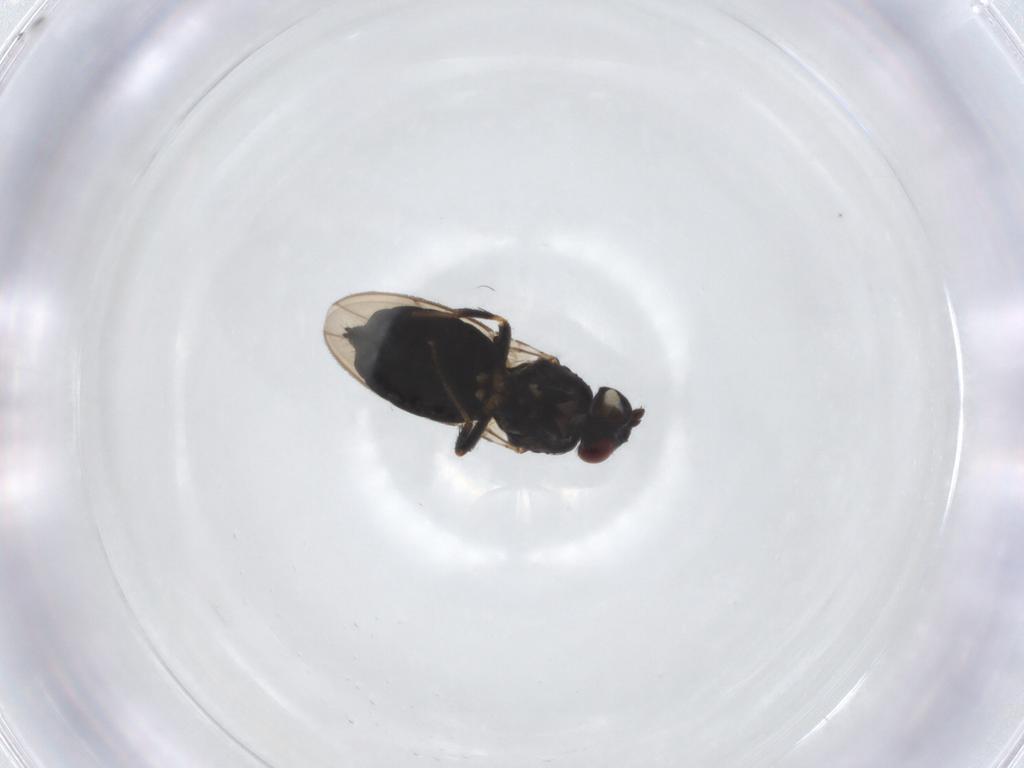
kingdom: Animalia
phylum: Arthropoda
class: Insecta
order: Diptera
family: Sphaeroceridae
